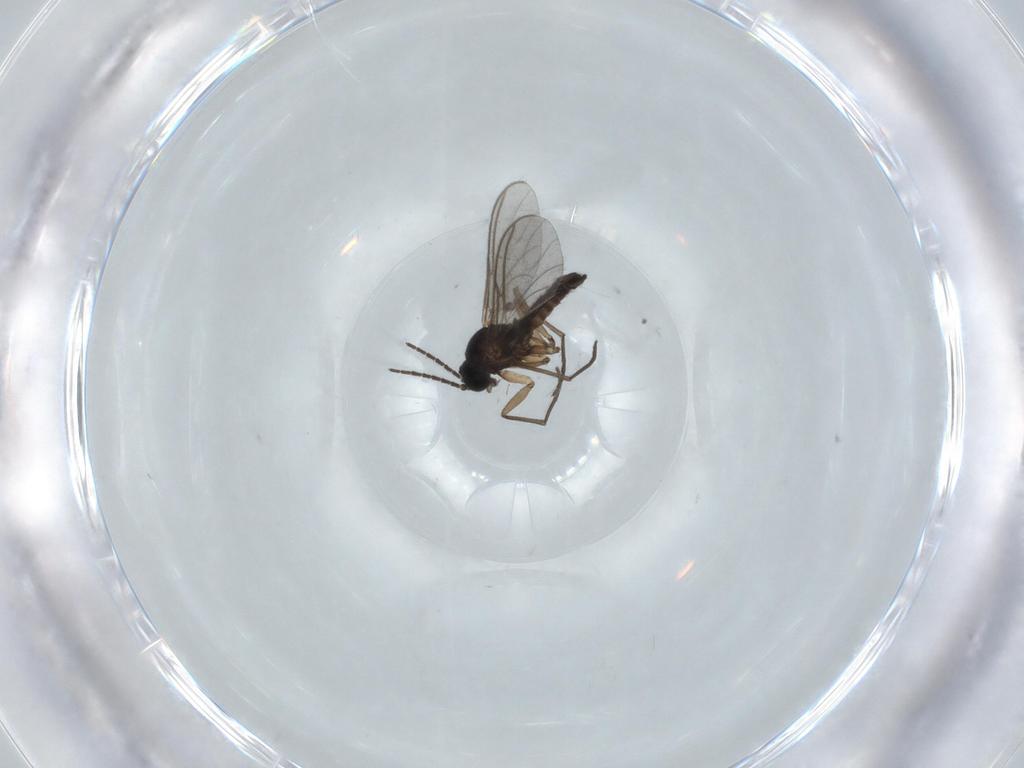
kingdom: Animalia
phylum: Arthropoda
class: Insecta
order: Diptera
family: Sciaridae
